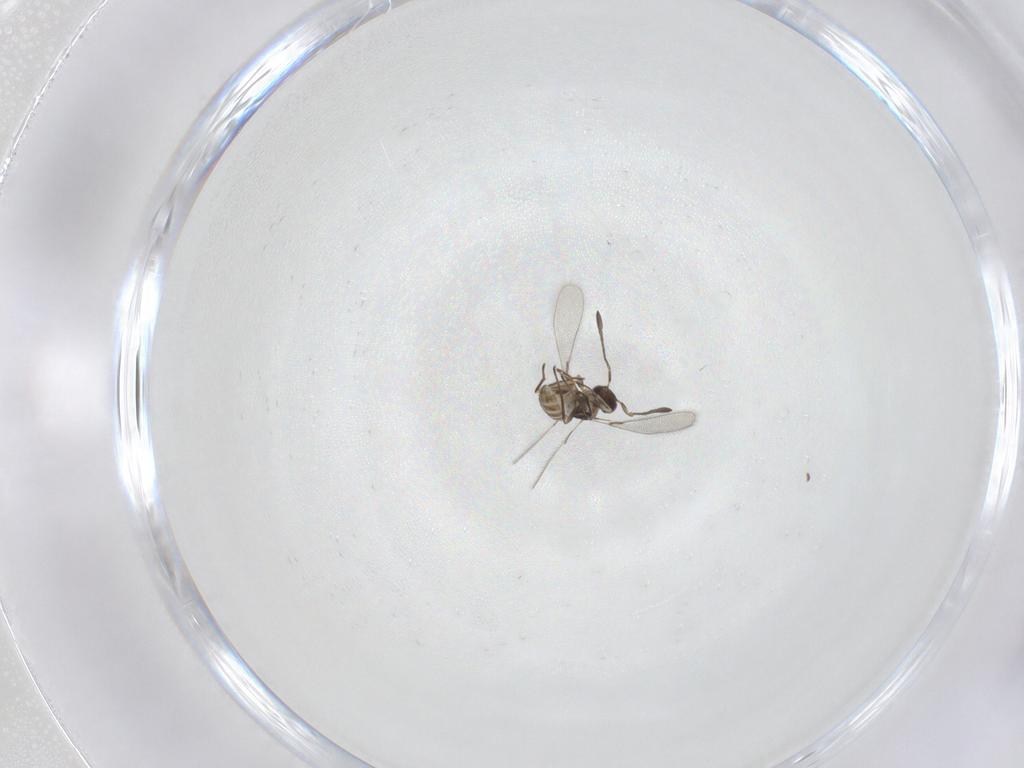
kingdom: Animalia
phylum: Arthropoda
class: Insecta
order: Hymenoptera
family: Mymaridae
